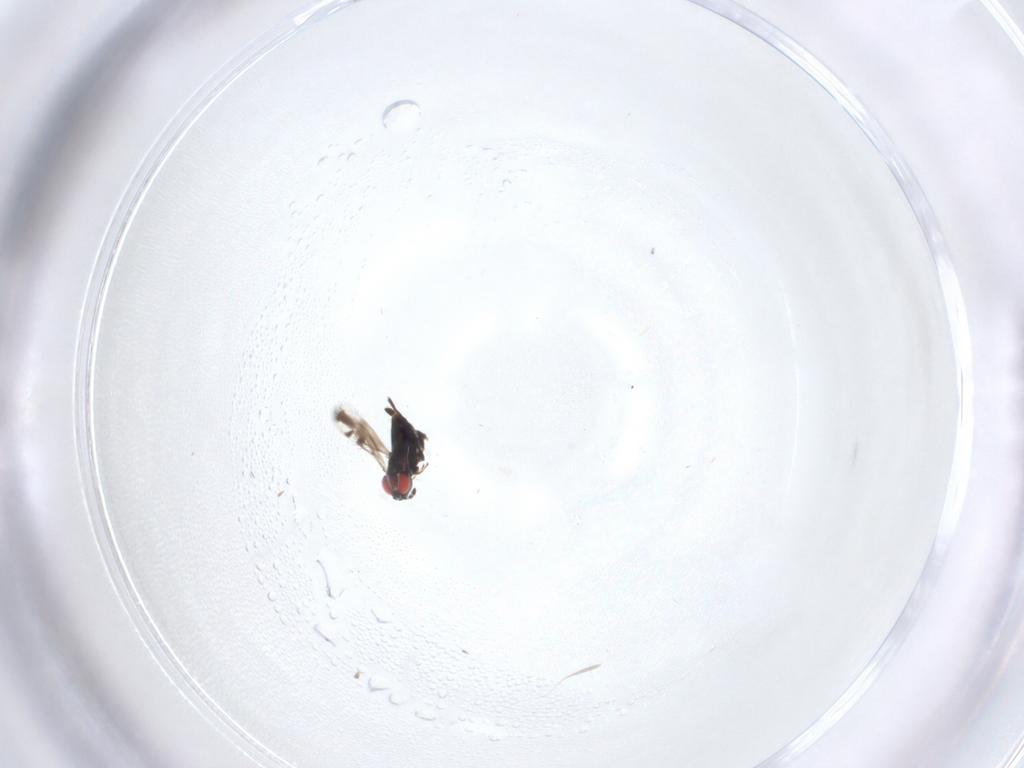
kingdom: Animalia
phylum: Arthropoda
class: Insecta
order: Hymenoptera
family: Azotidae
